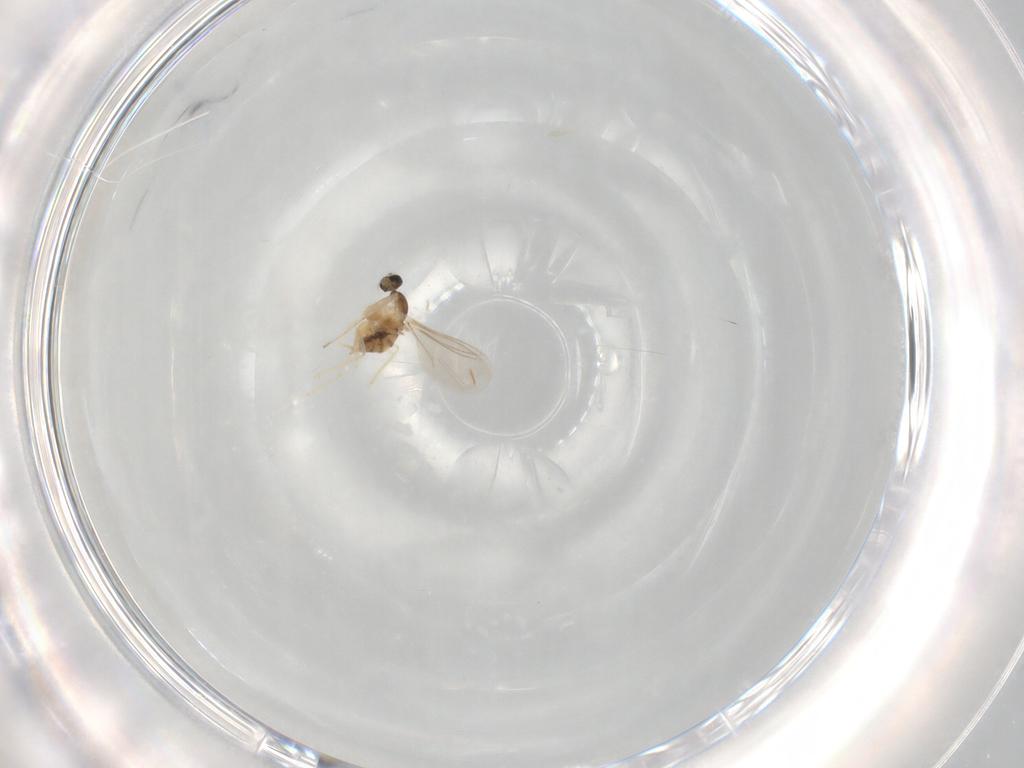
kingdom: Animalia
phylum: Arthropoda
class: Insecta
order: Diptera
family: Cecidomyiidae
